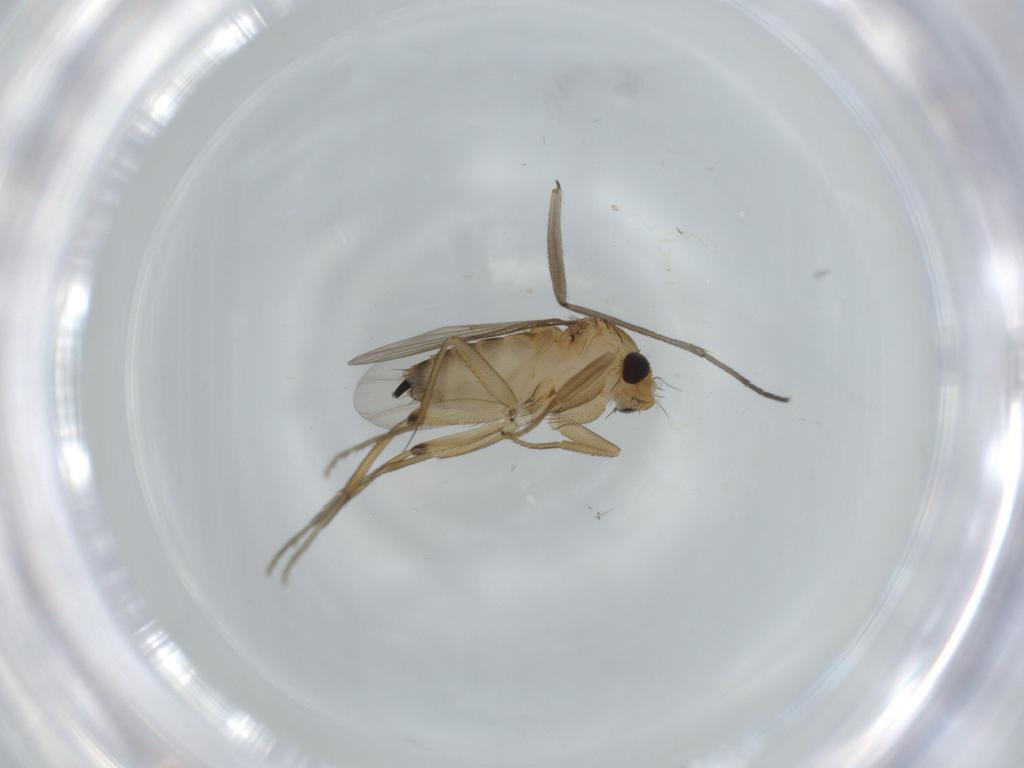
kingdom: Animalia
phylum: Arthropoda
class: Insecta
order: Diptera
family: Phoridae
